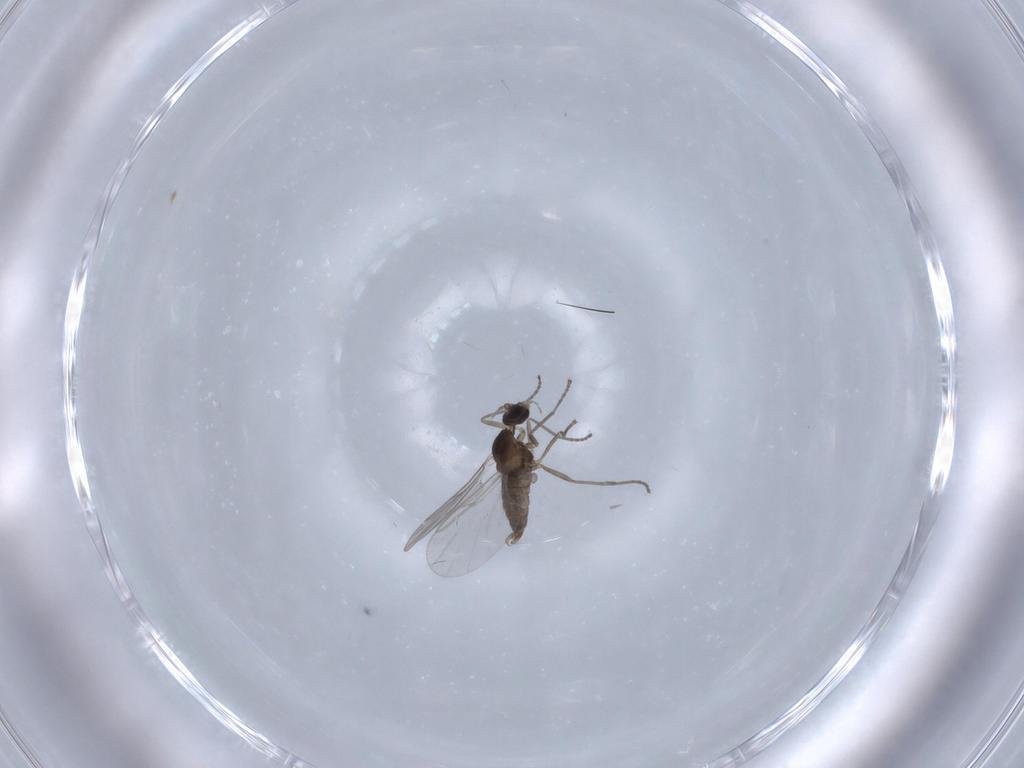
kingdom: Animalia
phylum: Arthropoda
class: Insecta
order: Diptera
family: Cecidomyiidae
